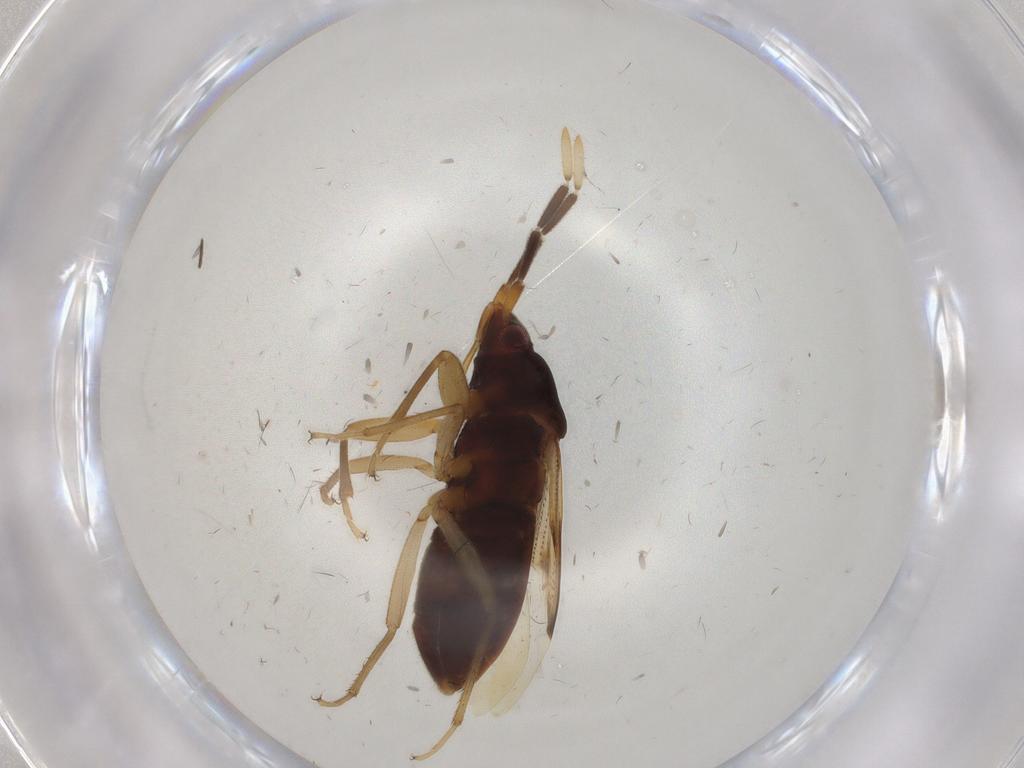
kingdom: Animalia
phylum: Arthropoda
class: Insecta
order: Hemiptera
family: Rhyparochromidae
